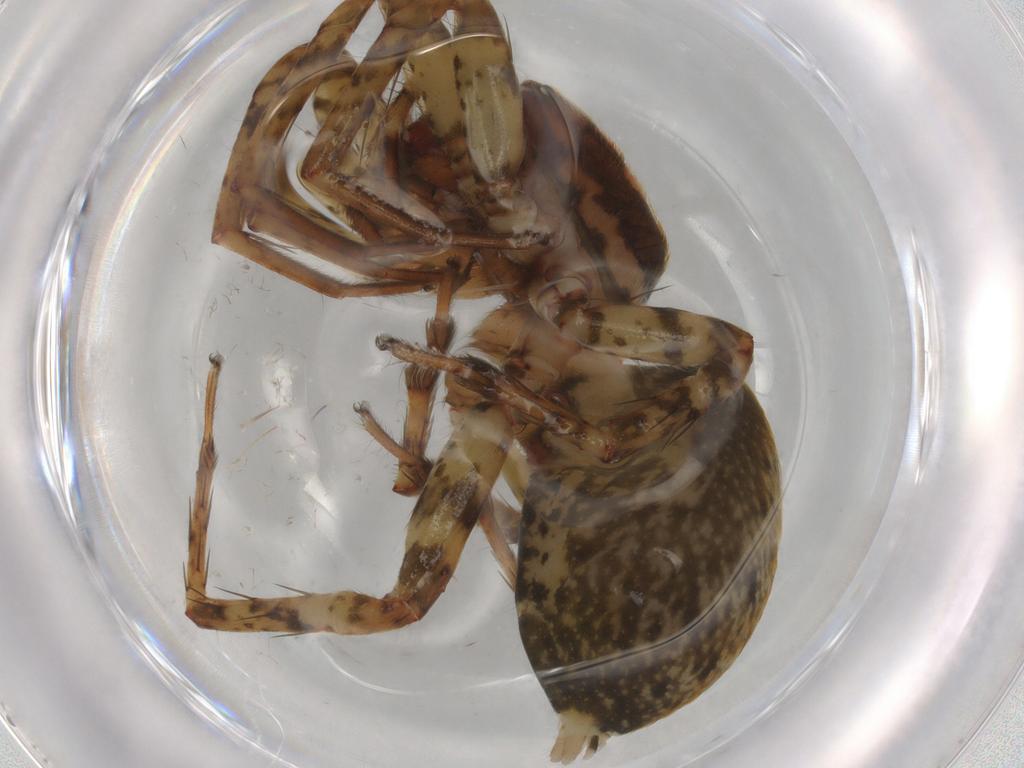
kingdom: Animalia
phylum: Arthropoda
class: Arachnida
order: Araneae
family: Anyphaenidae
